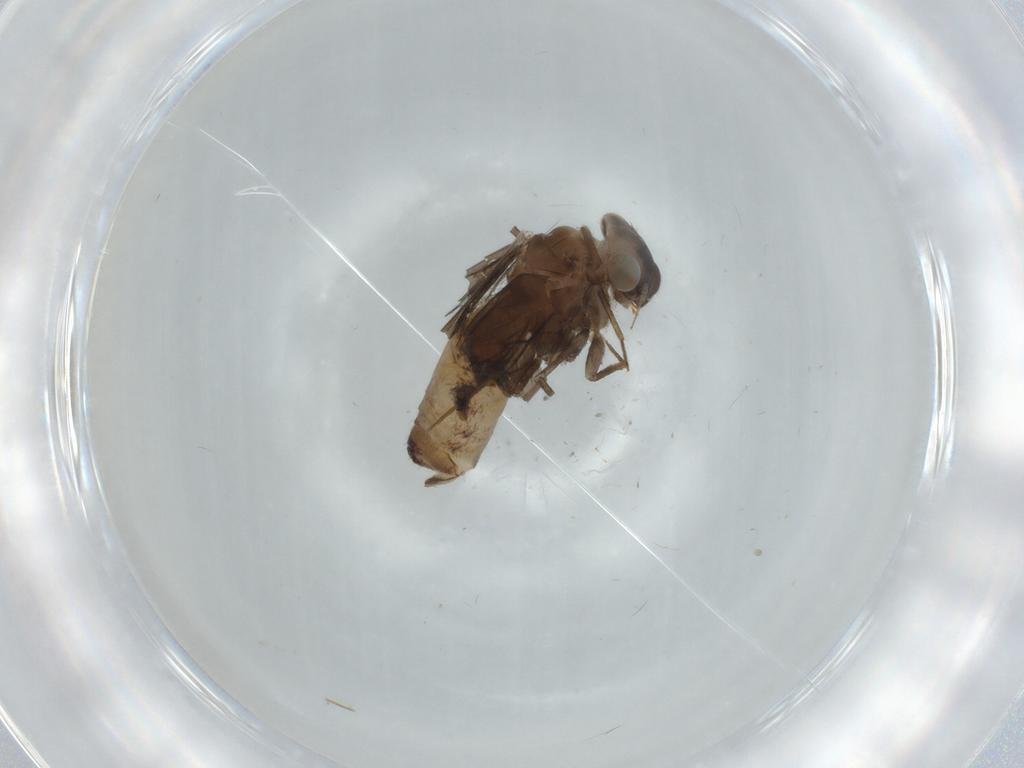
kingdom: Animalia
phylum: Arthropoda
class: Insecta
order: Psocodea
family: Lepidopsocidae
